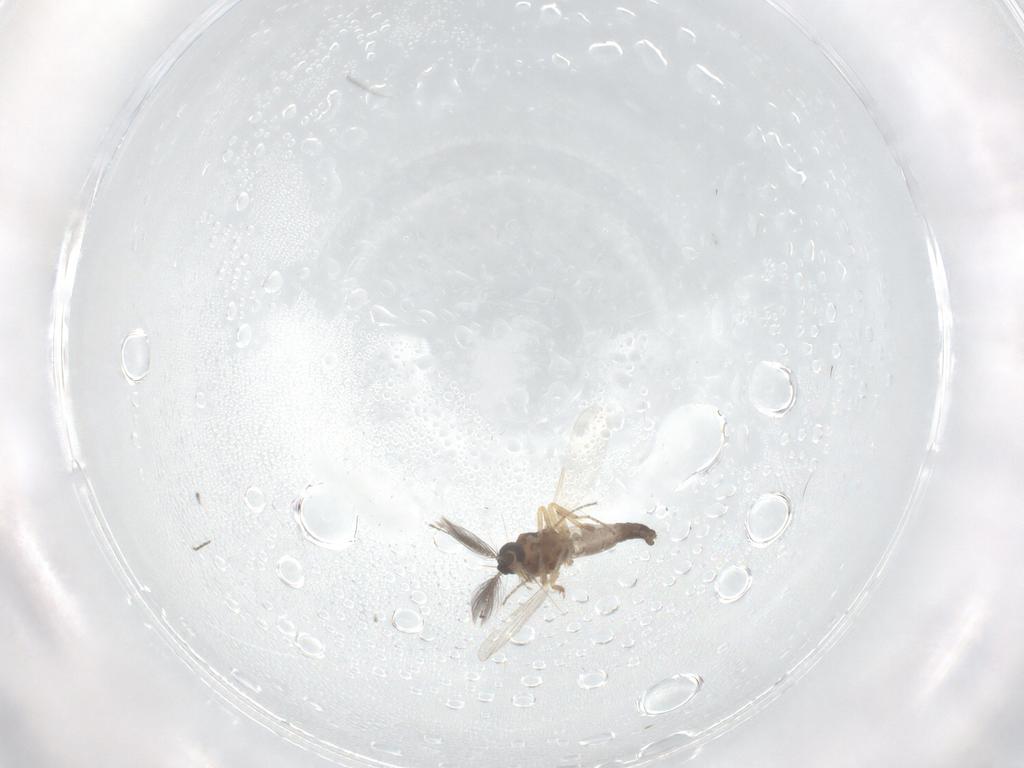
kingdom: Animalia
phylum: Arthropoda
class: Insecta
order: Diptera
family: Ceratopogonidae
